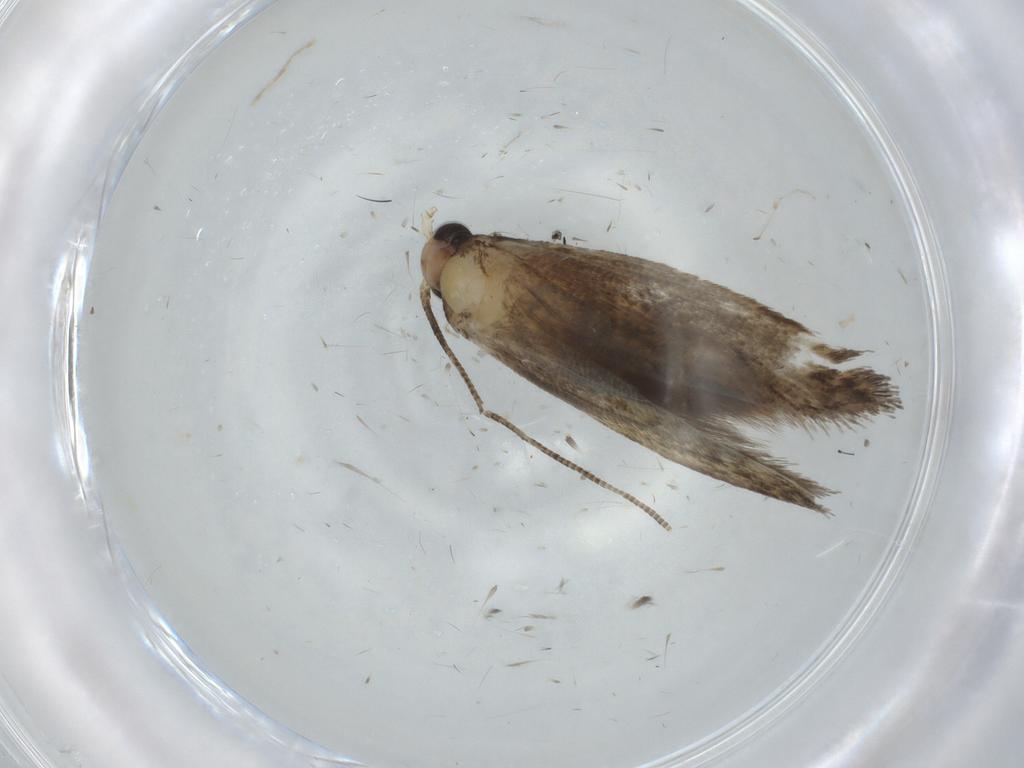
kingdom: Animalia
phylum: Arthropoda
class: Insecta
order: Lepidoptera
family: Tineidae
